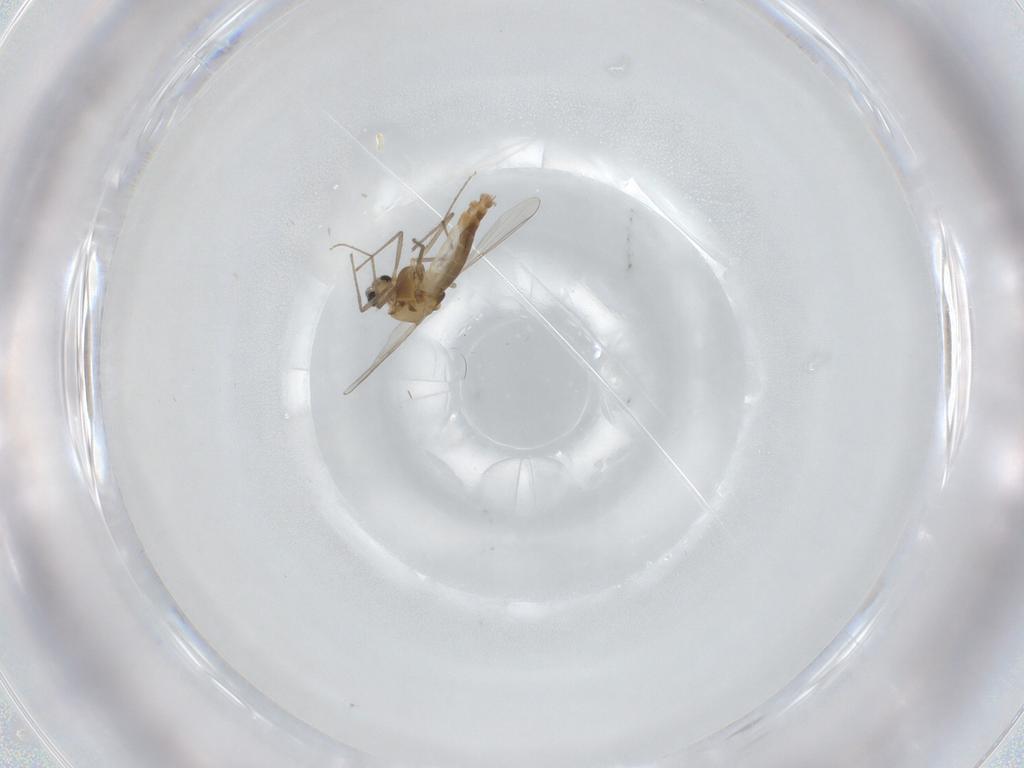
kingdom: Animalia
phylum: Arthropoda
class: Insecta
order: Diptera
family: Chironomidae
